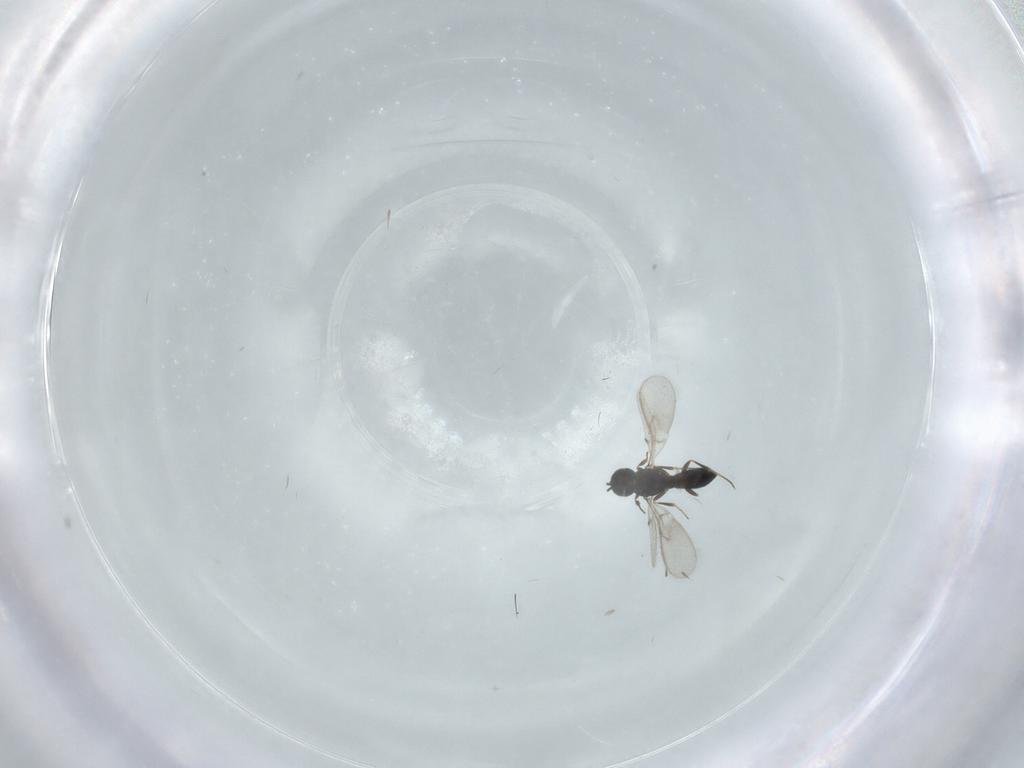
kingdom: Animalia
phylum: Arthropoda
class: Insecta
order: Hymenoptera
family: Scelionidae
